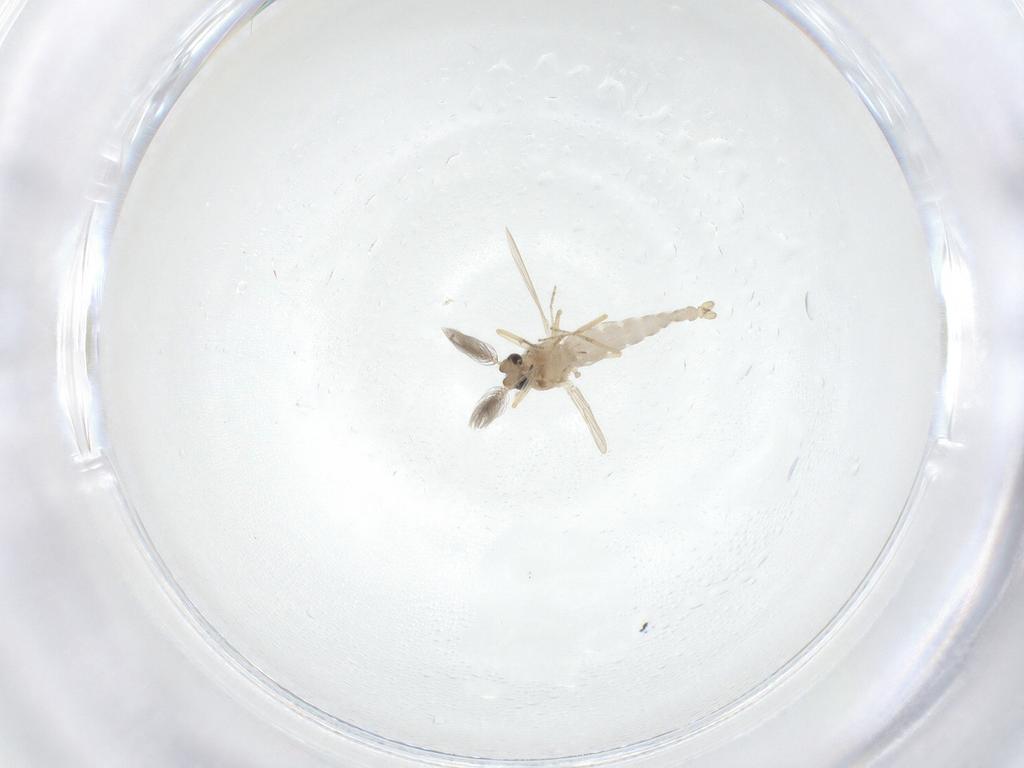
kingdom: Animalia
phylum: Arthropoda
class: Insecta
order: Diptera
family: Ceratopogonidae
